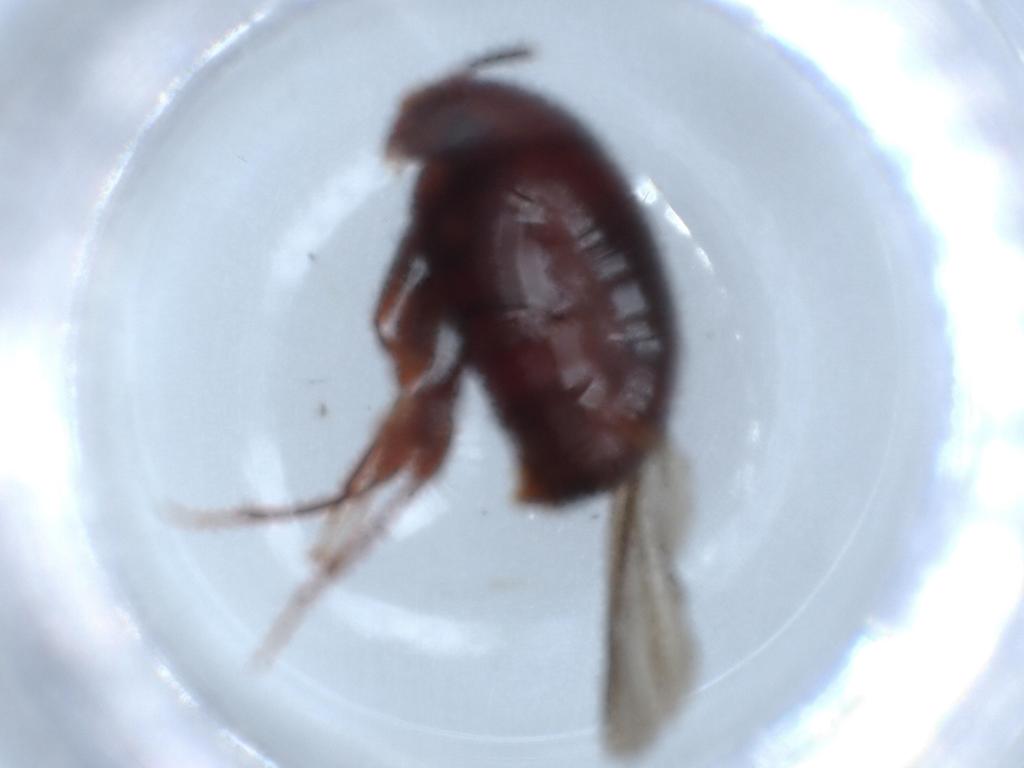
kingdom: Animalia
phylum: Arthropoda
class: Insecta
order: Coleoptera
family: Staphylinidae
